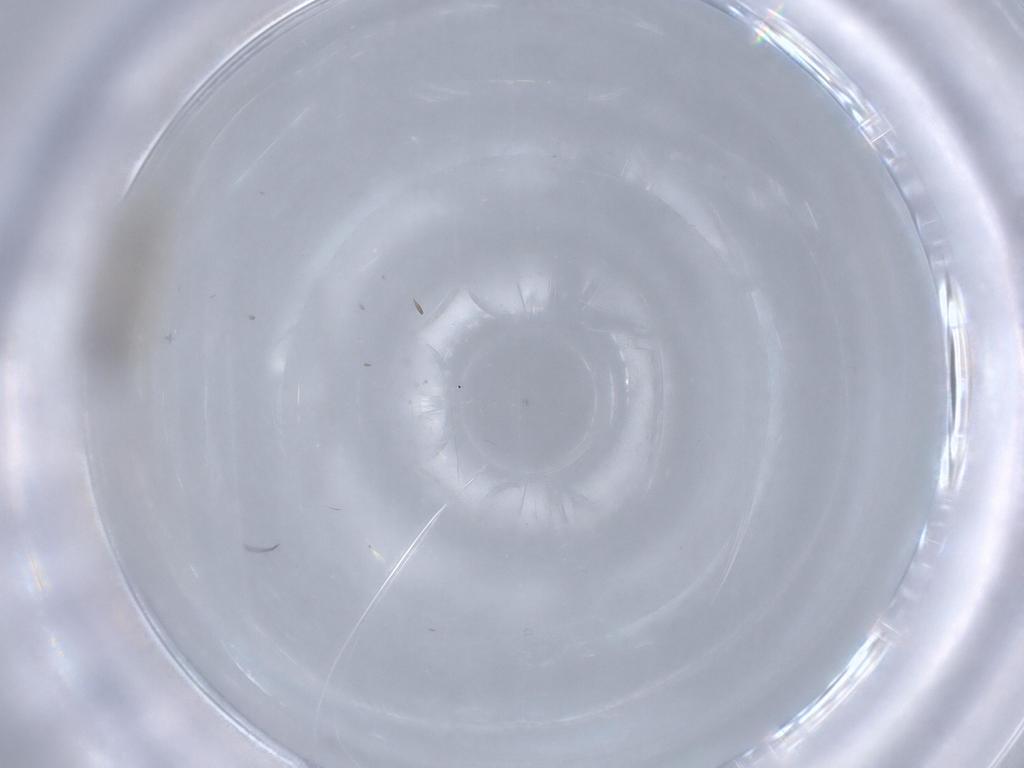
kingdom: Animalia
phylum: Arthropoda
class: Insecta
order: Diptera
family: Cecidomyiidae
